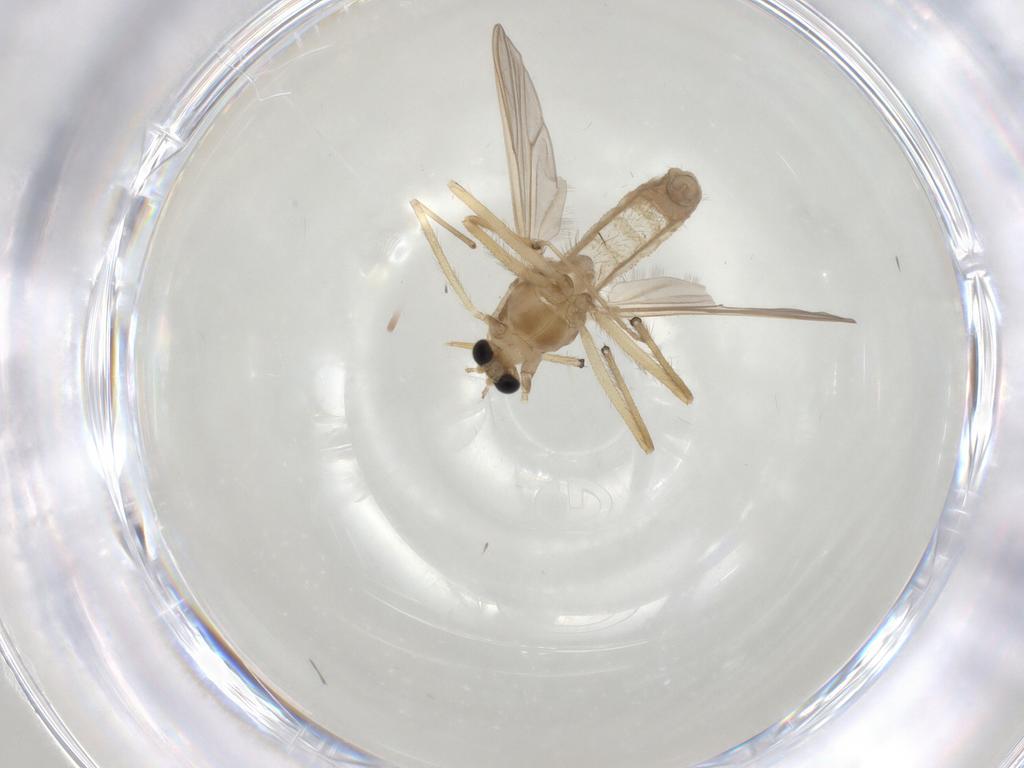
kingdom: Animalia
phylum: Arthropoda
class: Insecta
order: Diptera
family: Chironomidae
